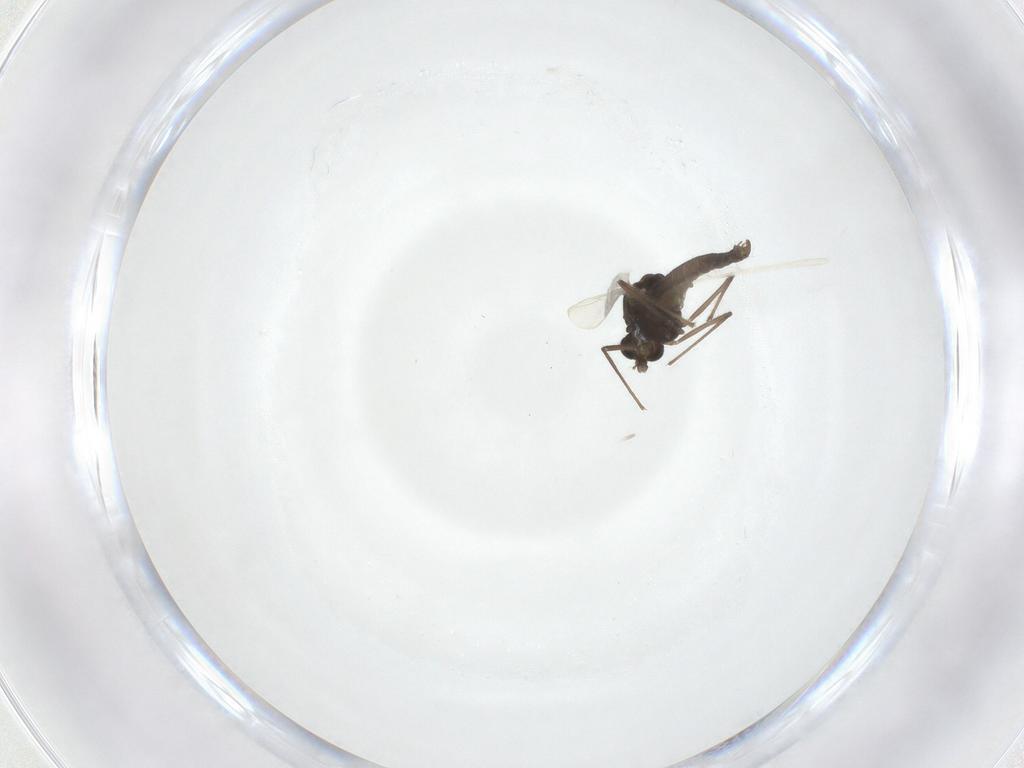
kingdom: Animalia
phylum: Arthropoda
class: Insecta
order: Diptera
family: Chironomidae
